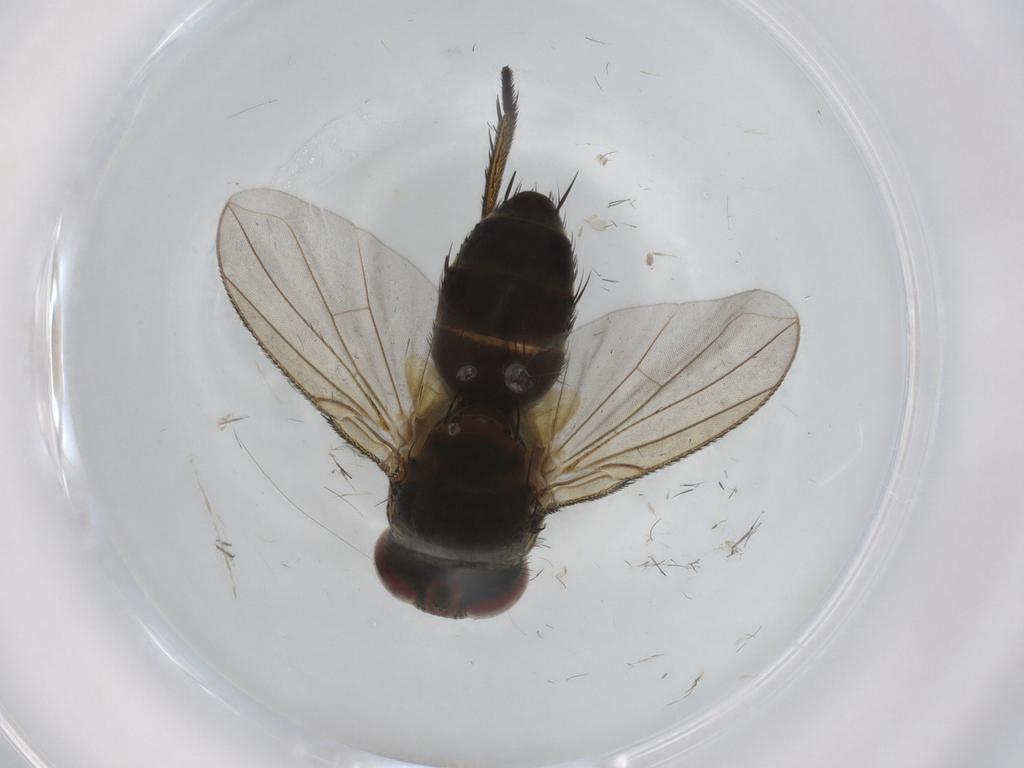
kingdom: Animalia
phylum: Arthropoda
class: Insecta
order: Diptera
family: Tachinidae
